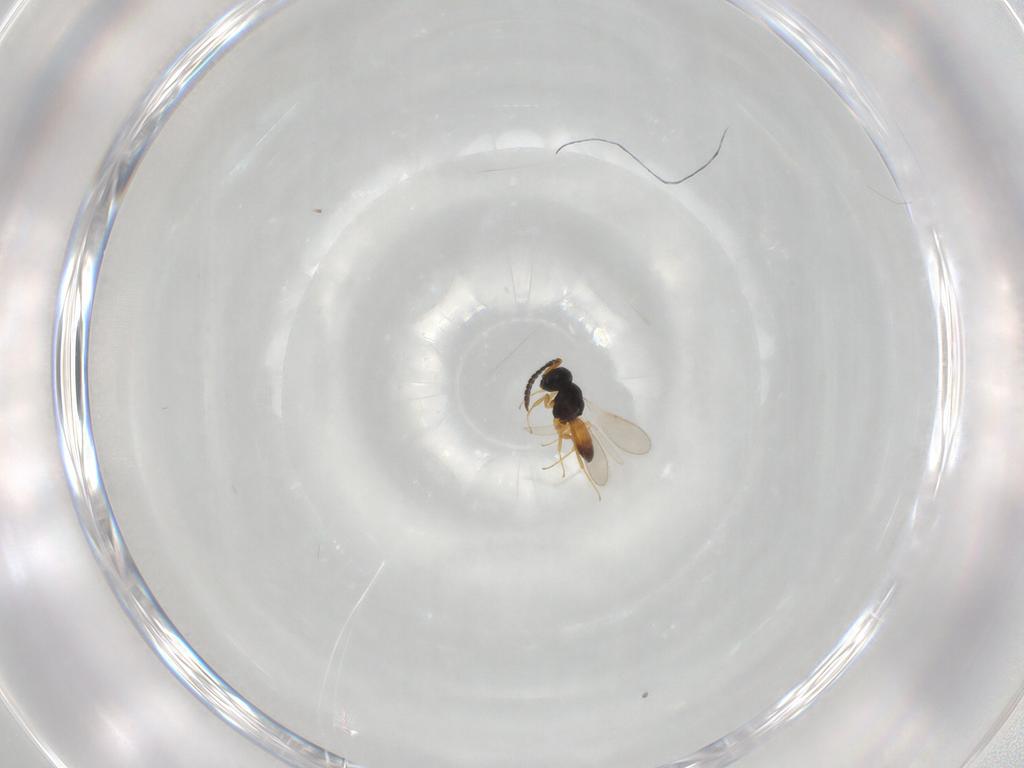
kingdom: Animalia
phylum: Arthropoda
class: Insecta
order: Hymenoptera
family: Scelionidae
